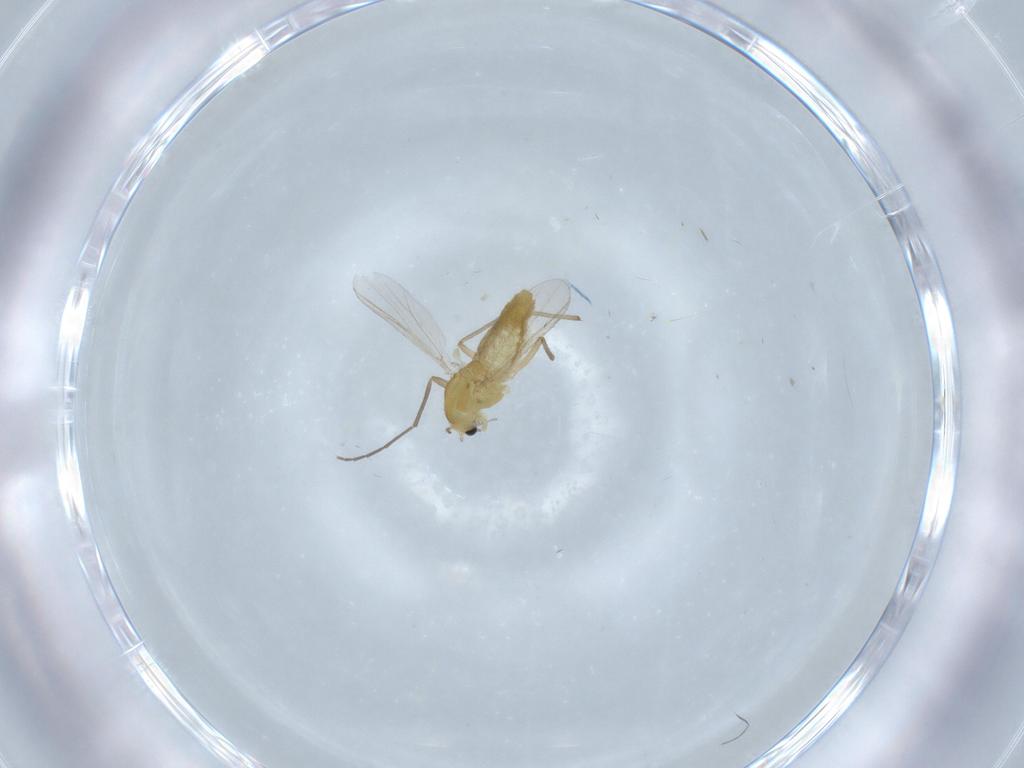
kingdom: Animalia
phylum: Arthropoda
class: Insecta
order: Diptera
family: Chironomidae
